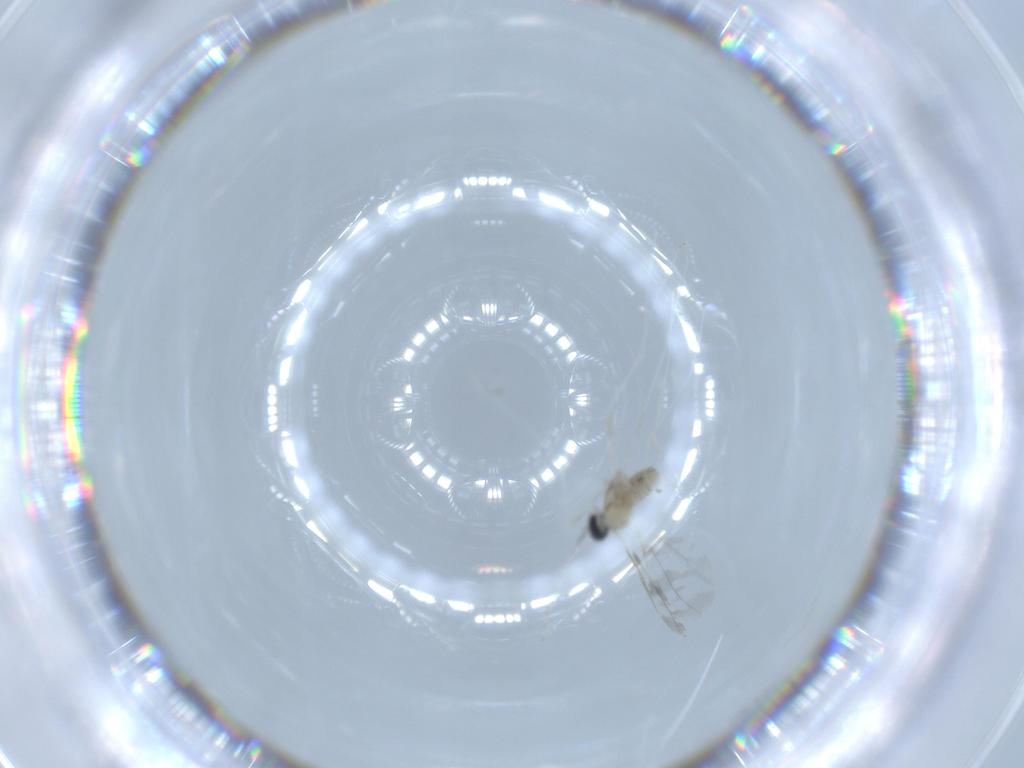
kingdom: Animalia
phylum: Arthropoda
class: Insecta
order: Diptera
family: Cecidomyiidae
